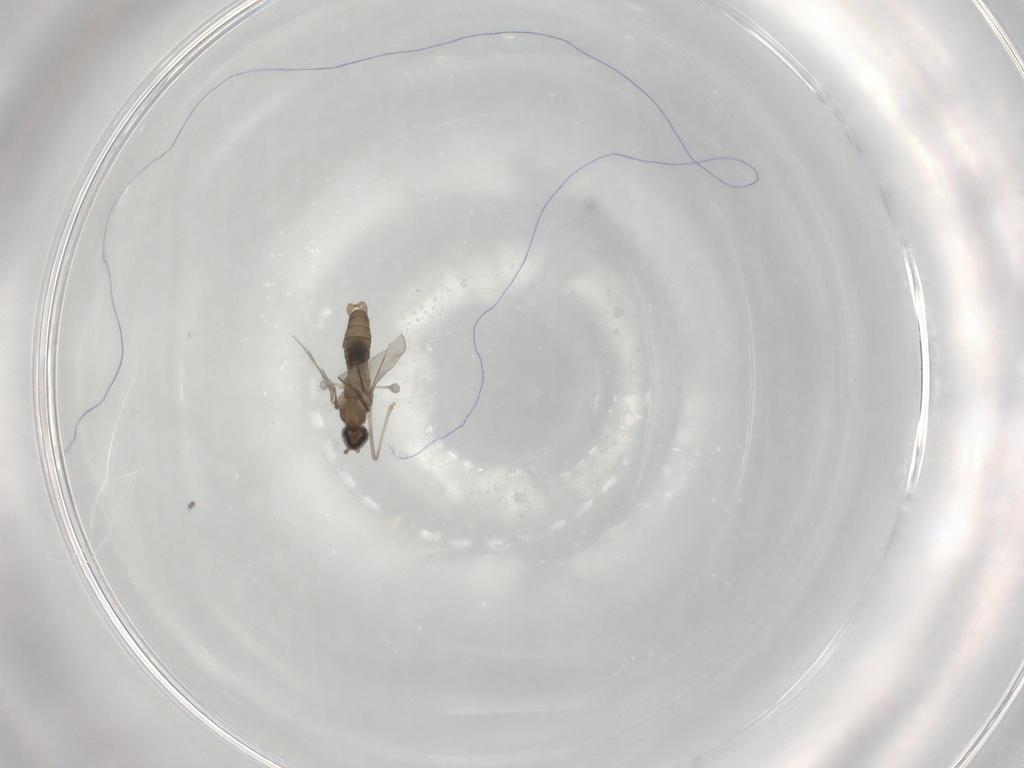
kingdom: Animalia
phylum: Arthropoda
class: Insecta
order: Diptera
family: Cecidomyiidae
